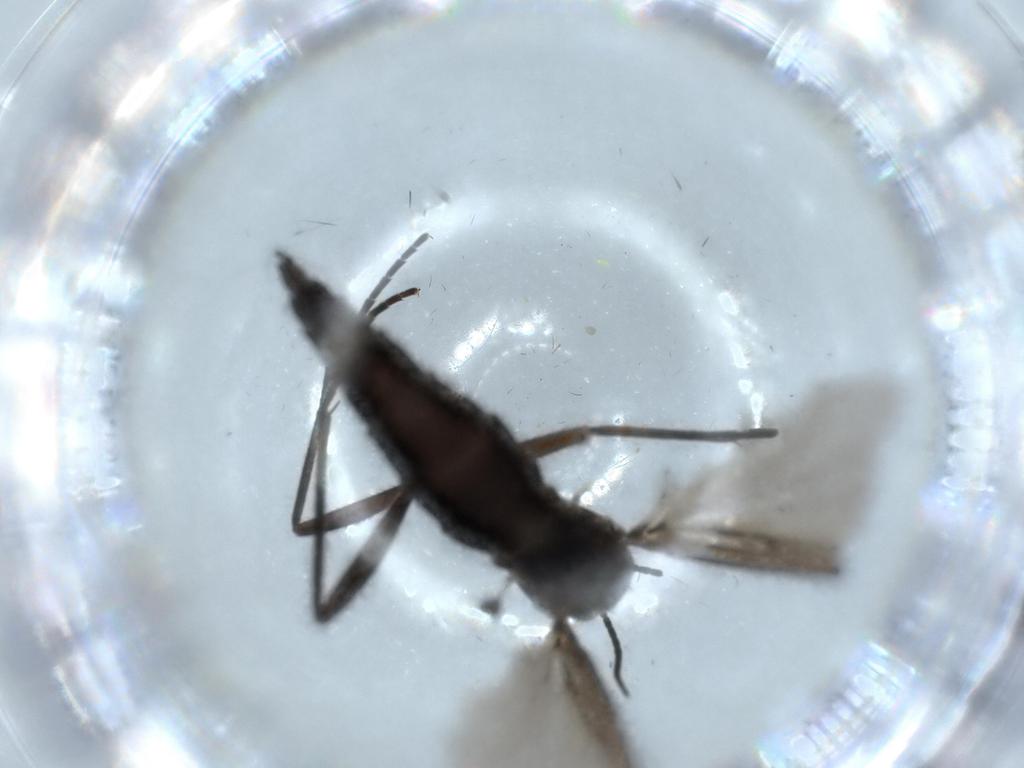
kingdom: Animalia
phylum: Arthropoda
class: Insecta
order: Diptera
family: Sciaridae
